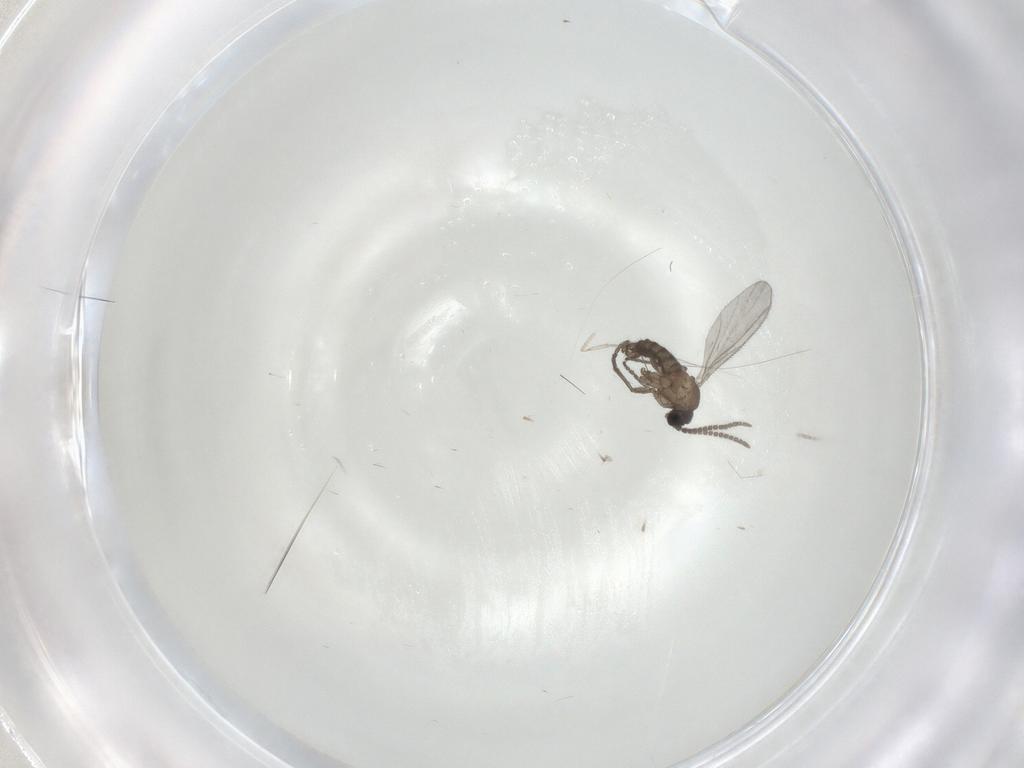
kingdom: Animalia
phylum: Arthropoda
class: Insecta
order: Diptera
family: Sciaridae
